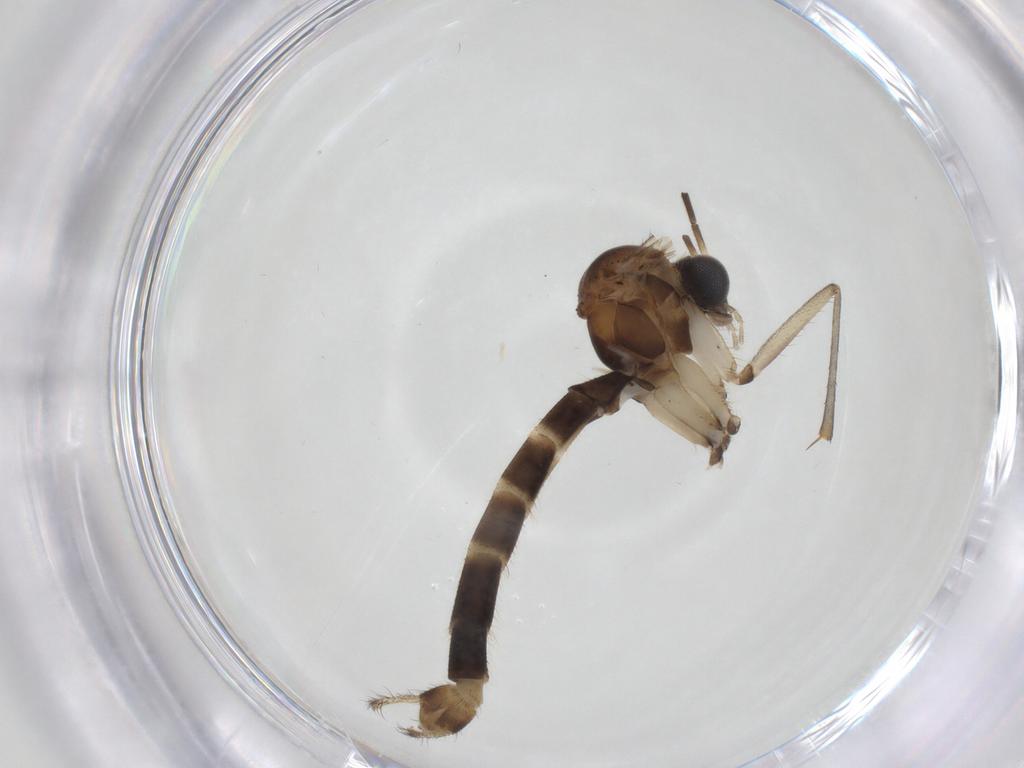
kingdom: Animalia
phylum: Arthropoda
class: Insecta
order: Diptera
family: Mycetophilidae
